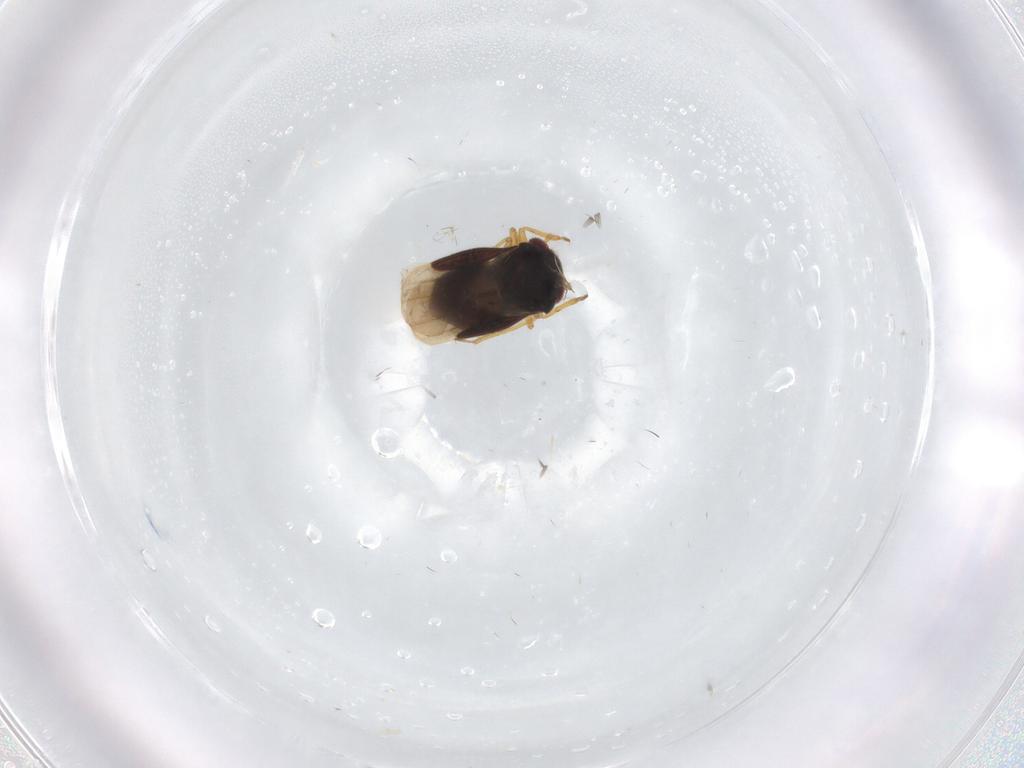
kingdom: Animalia
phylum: Arthropoda
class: Insecta
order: Hemiptera
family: Schizopteridae
